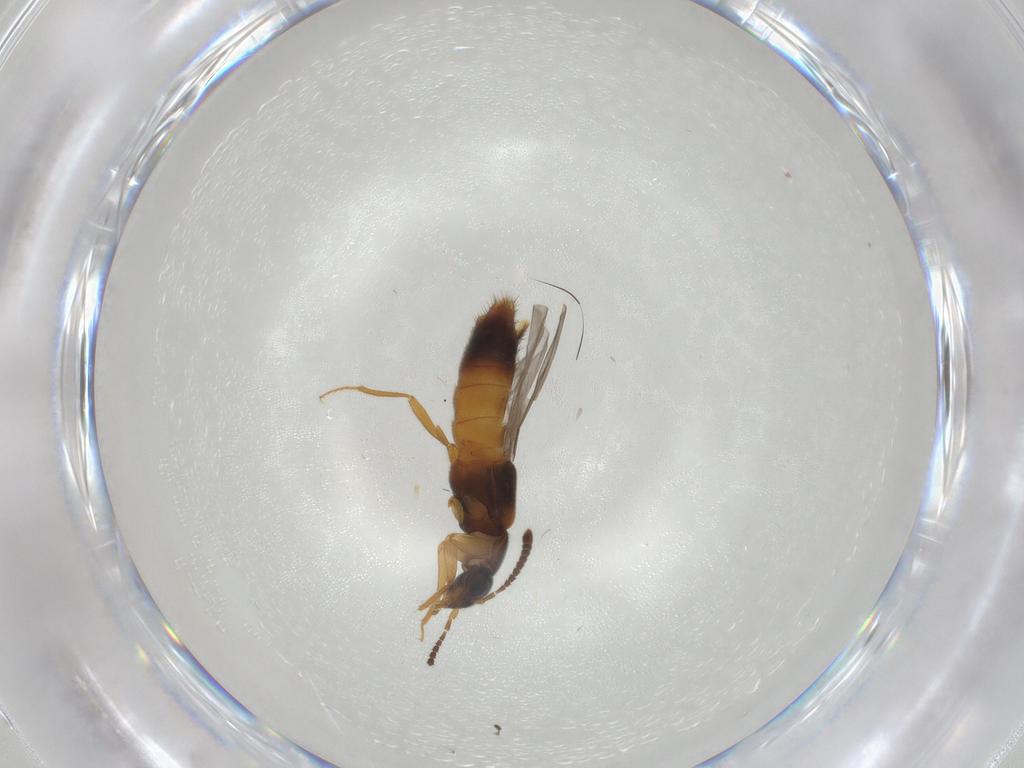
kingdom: Animalia
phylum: Arthropoda
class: Insecta
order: Coleoptera
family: Staphylinidae
